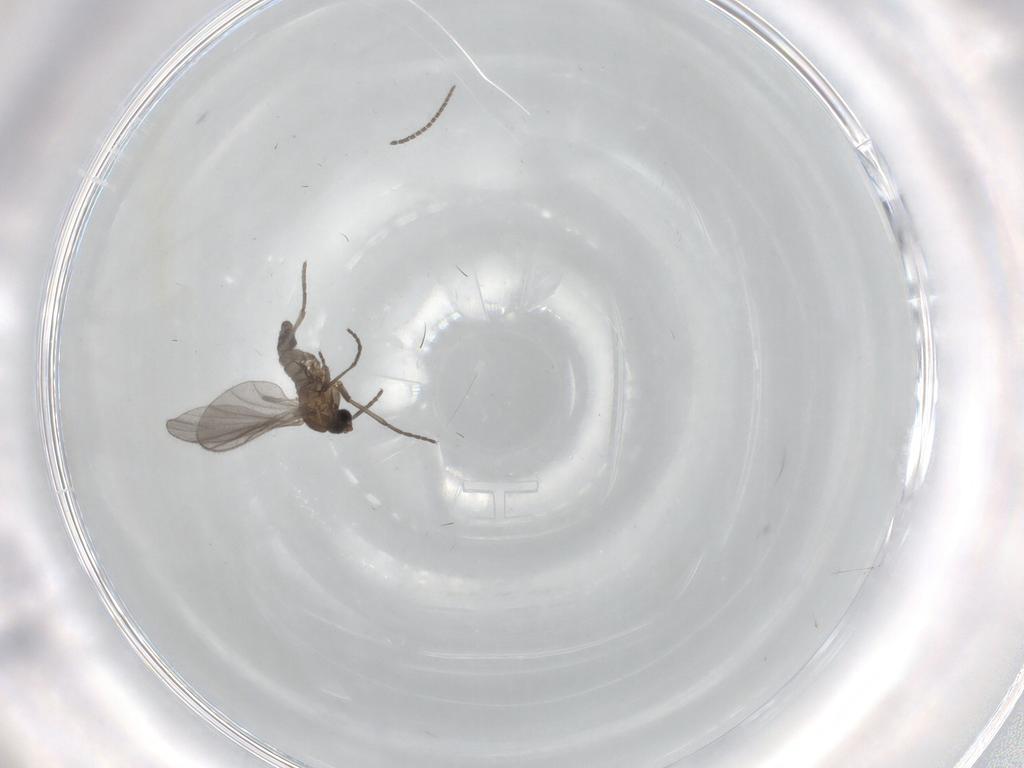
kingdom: Animalia
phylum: Arthropoda
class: Insecta
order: Diptera
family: Sciaridae
